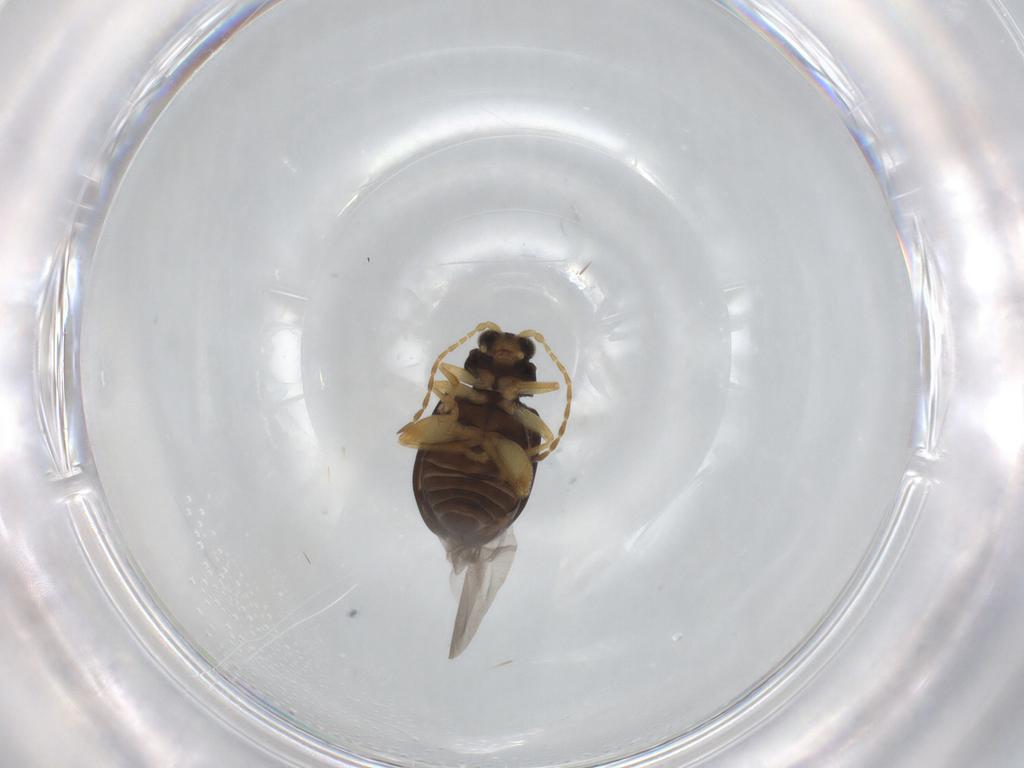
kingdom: Animalia
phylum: Arthropoda
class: Insecta
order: Coleoptera
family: Chrysomelidae
